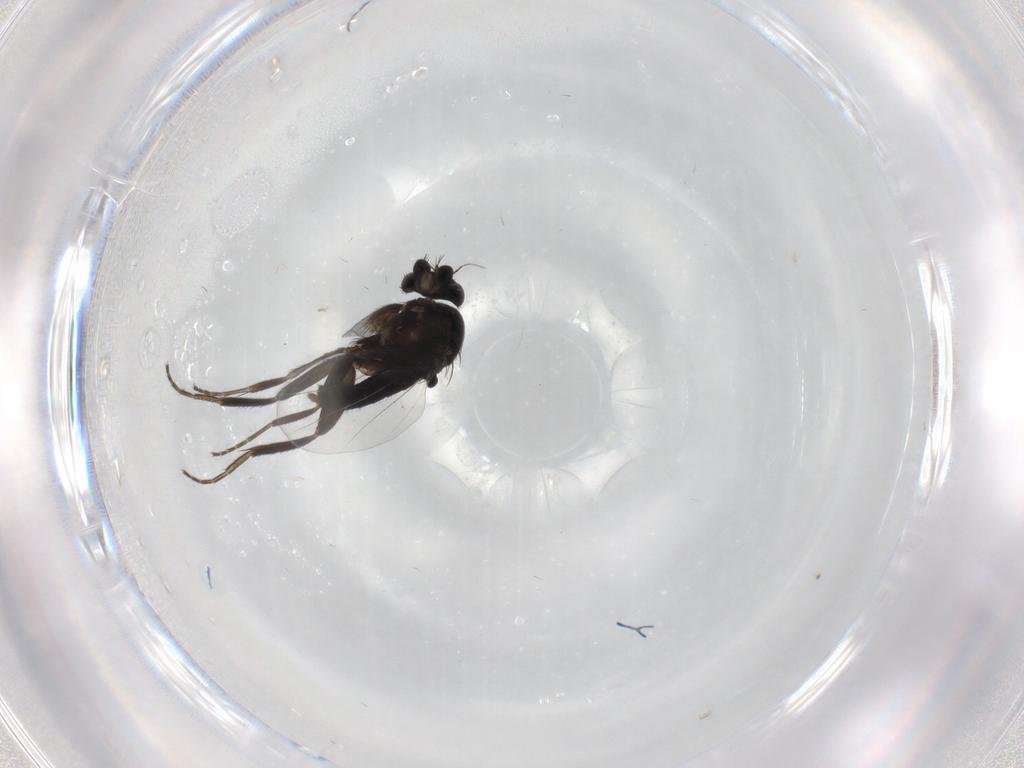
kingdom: Animalia
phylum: Arthropoda
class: Insecta
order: Diptera
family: Phoridae
